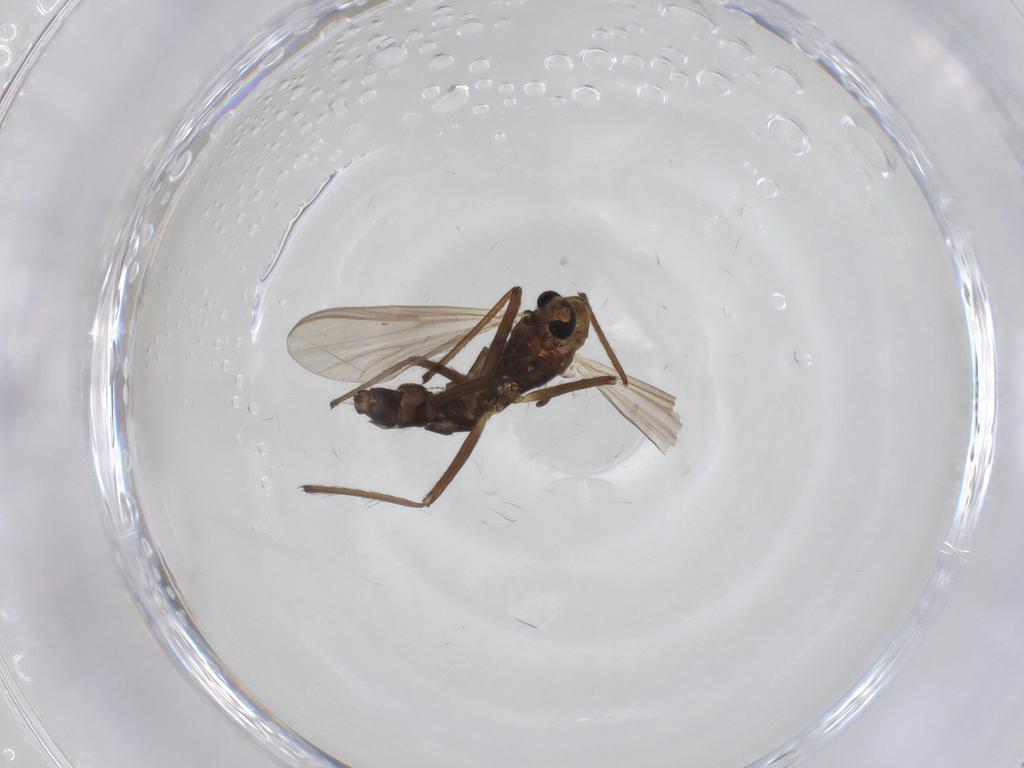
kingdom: Animalia
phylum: Arthropoda
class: Insecta
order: Diptera
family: Chironomidae
